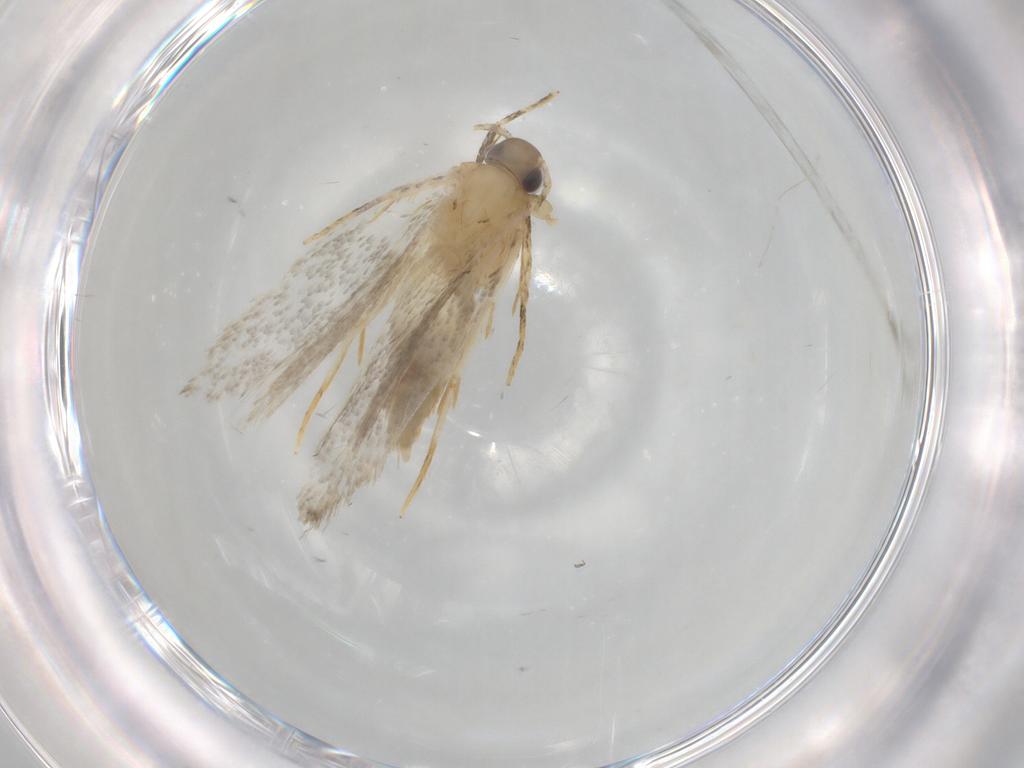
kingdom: Animalia
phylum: Arthropoda
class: Insecta
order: Lepidoptera
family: Autostichidae
